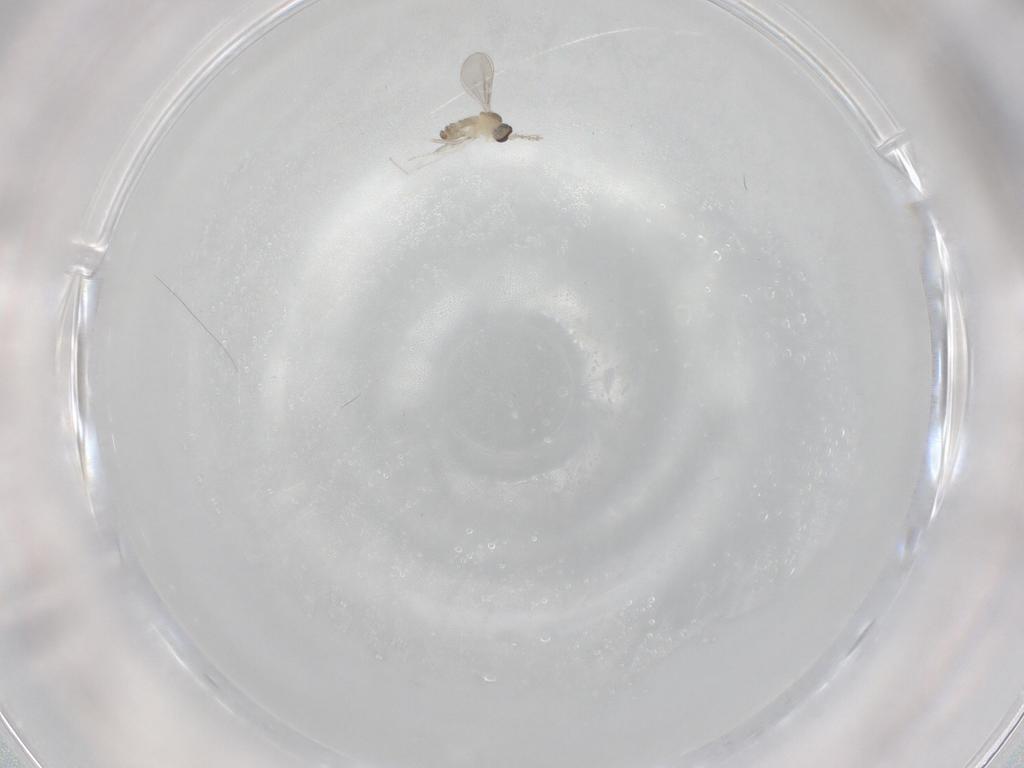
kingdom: Animalia
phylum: Arthropoda
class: Insecta
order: Diptera
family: Cecidomyiidae
